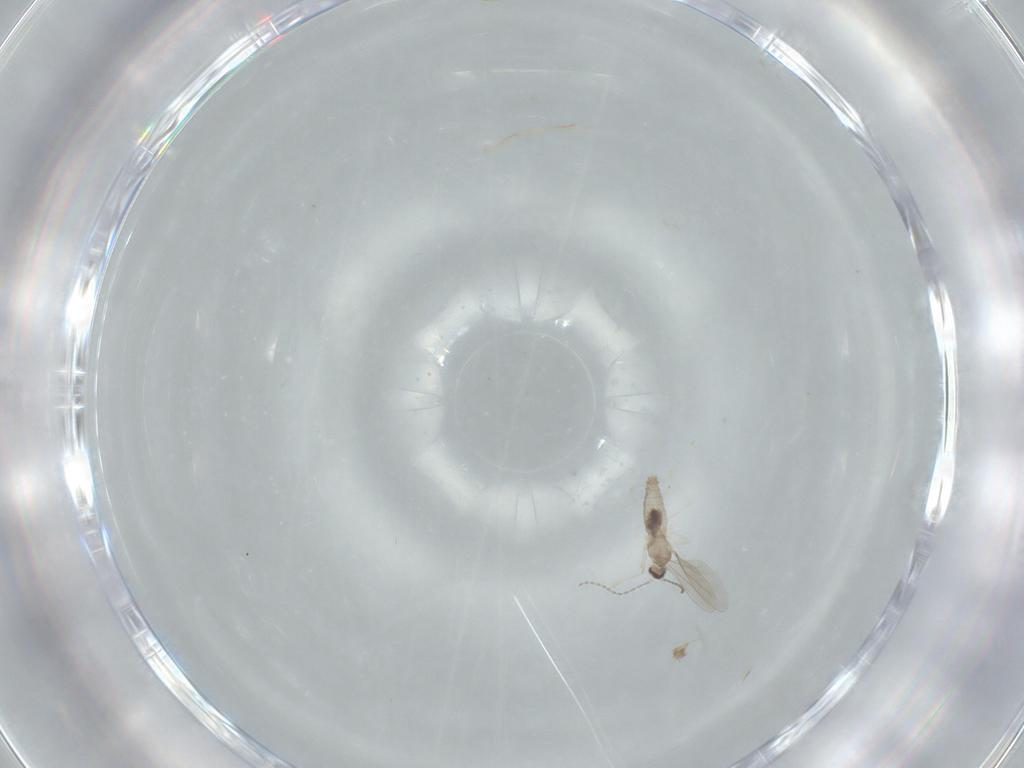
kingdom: Animalia
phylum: Arthropoda
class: Insecta
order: Diptera
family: Cecidomyiidae
